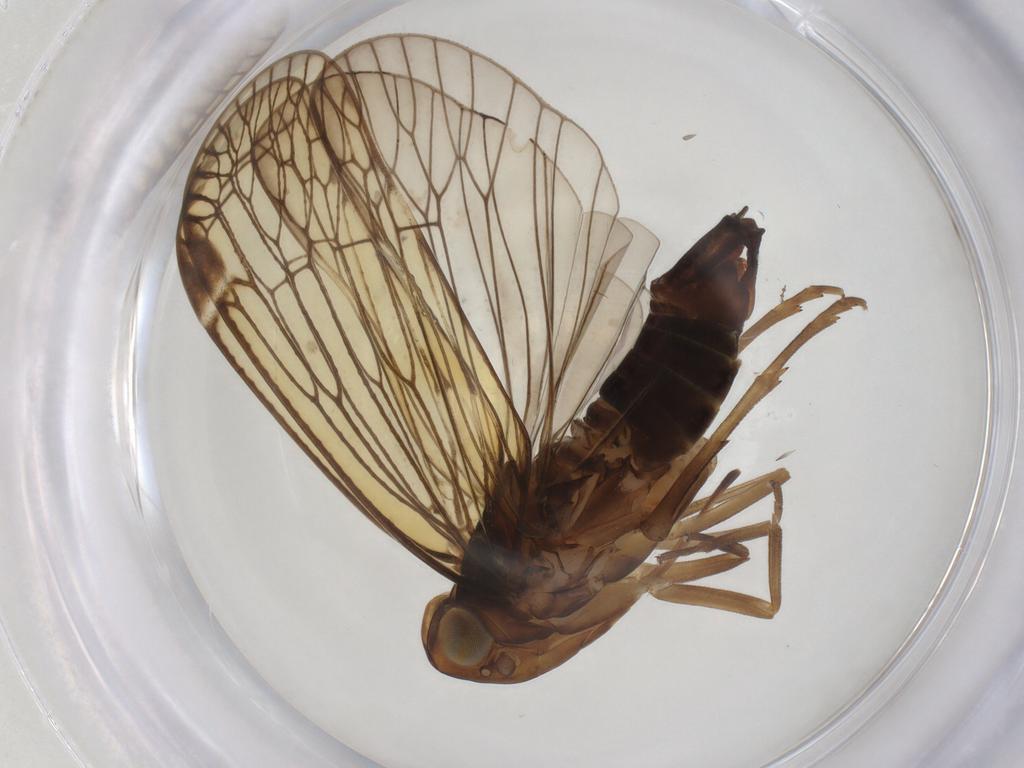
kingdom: Animalia
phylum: Arthropoda
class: Insecta
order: Hemiptera
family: Cixiidae
